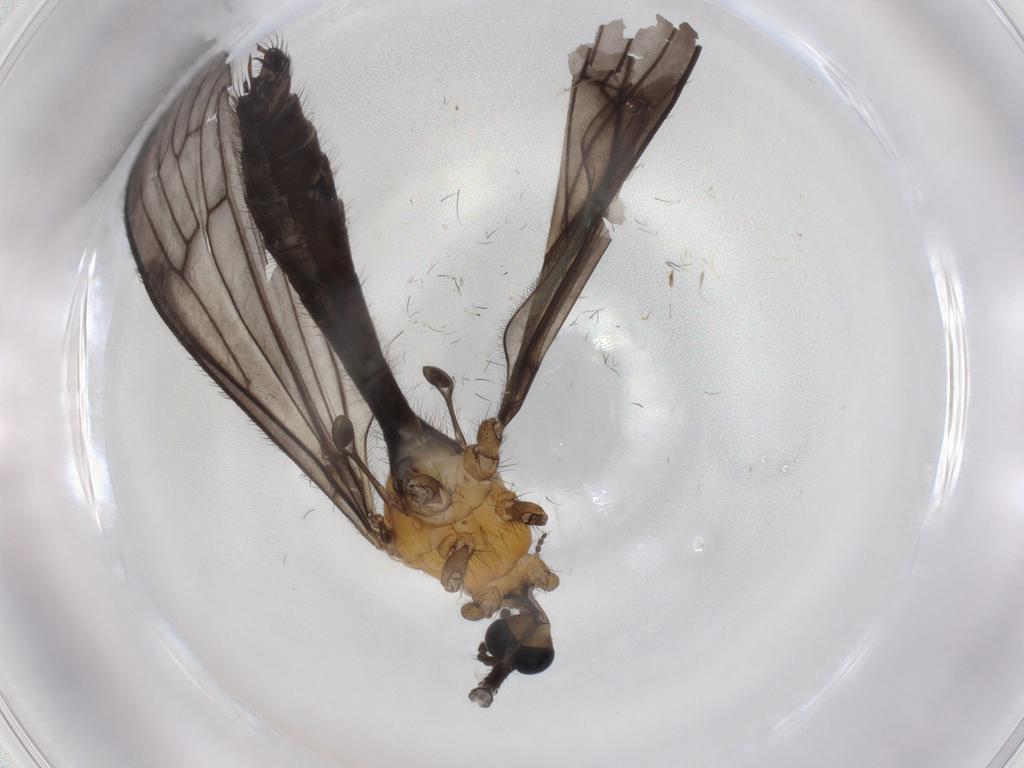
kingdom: Animalia
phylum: Arthropoda
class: Insecta
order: Diptera
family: Limoniidae
